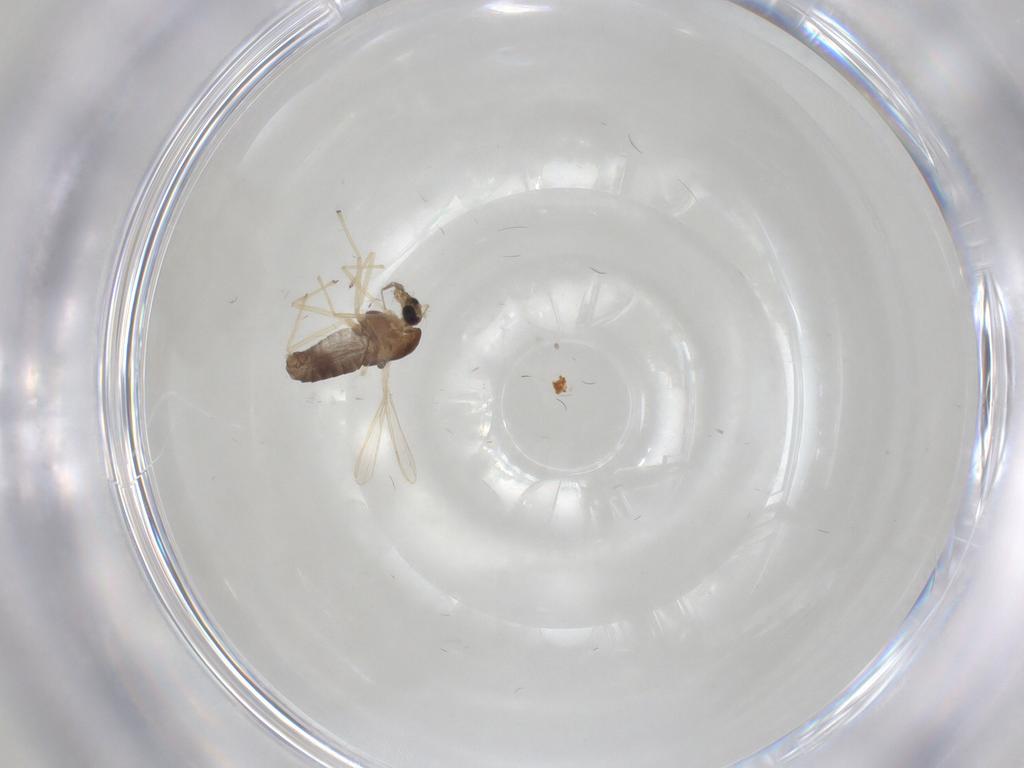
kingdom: Animalia
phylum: Arthropoda
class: Insecta
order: Diptera
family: Chironomidae
